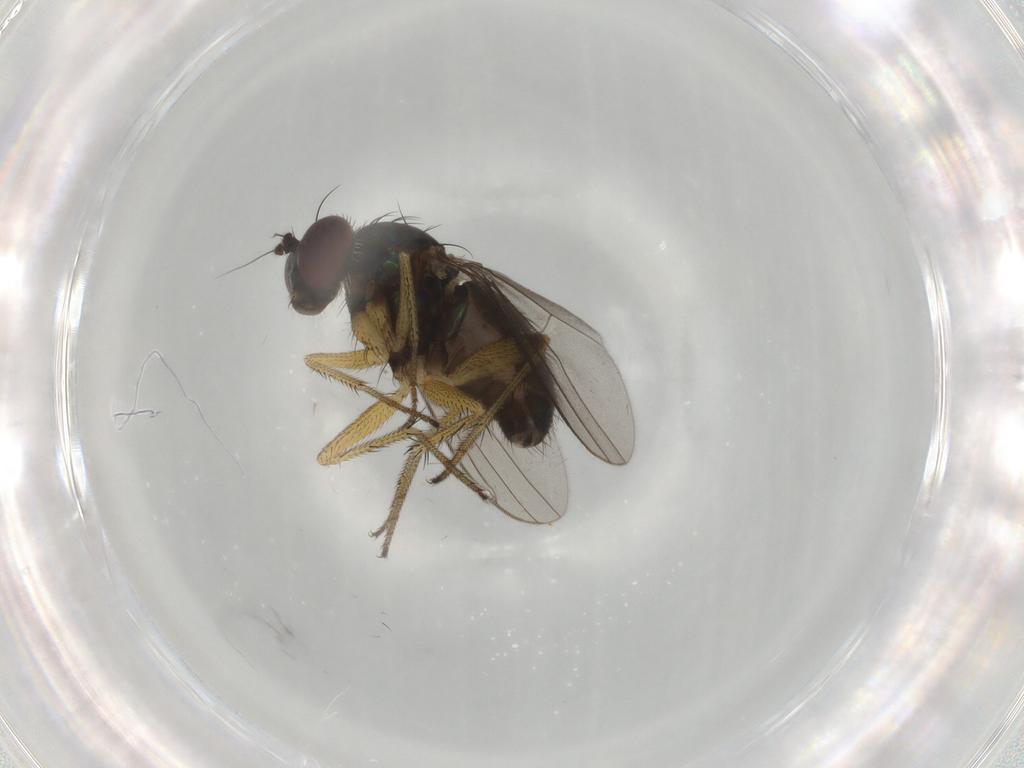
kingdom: Animalia
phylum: Arthropoda
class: Insecta
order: Diptera
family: Dolichopodidae
